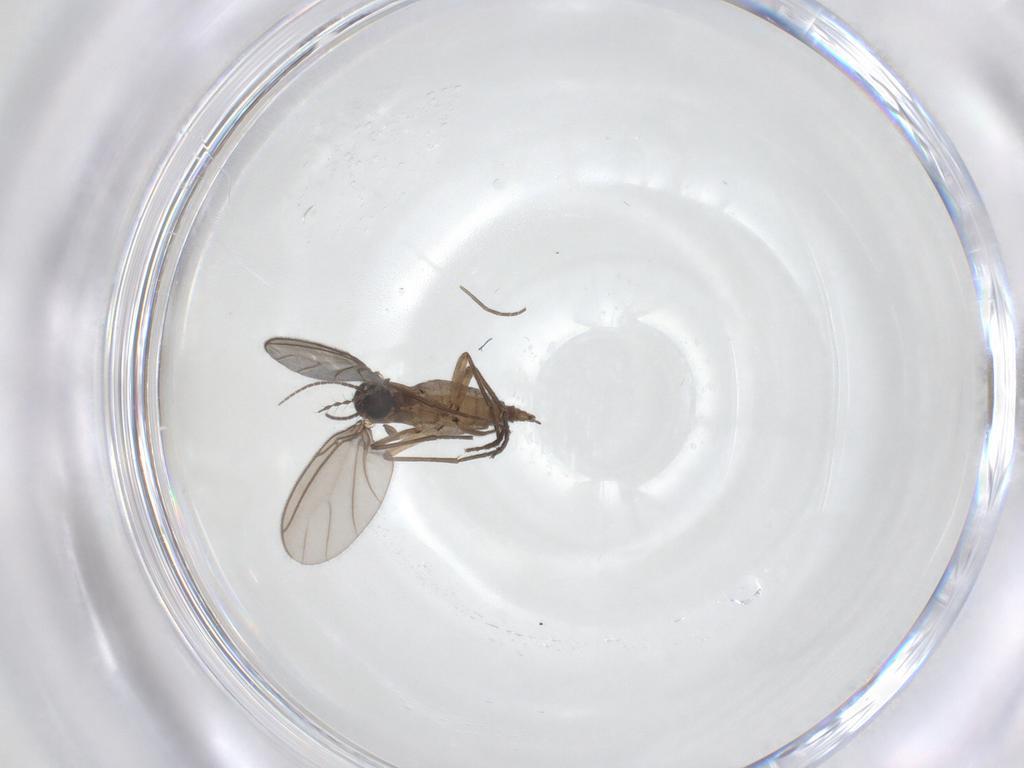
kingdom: Animalia
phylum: Arthropoda
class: Insecta
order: Diptera
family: Sciaridae
